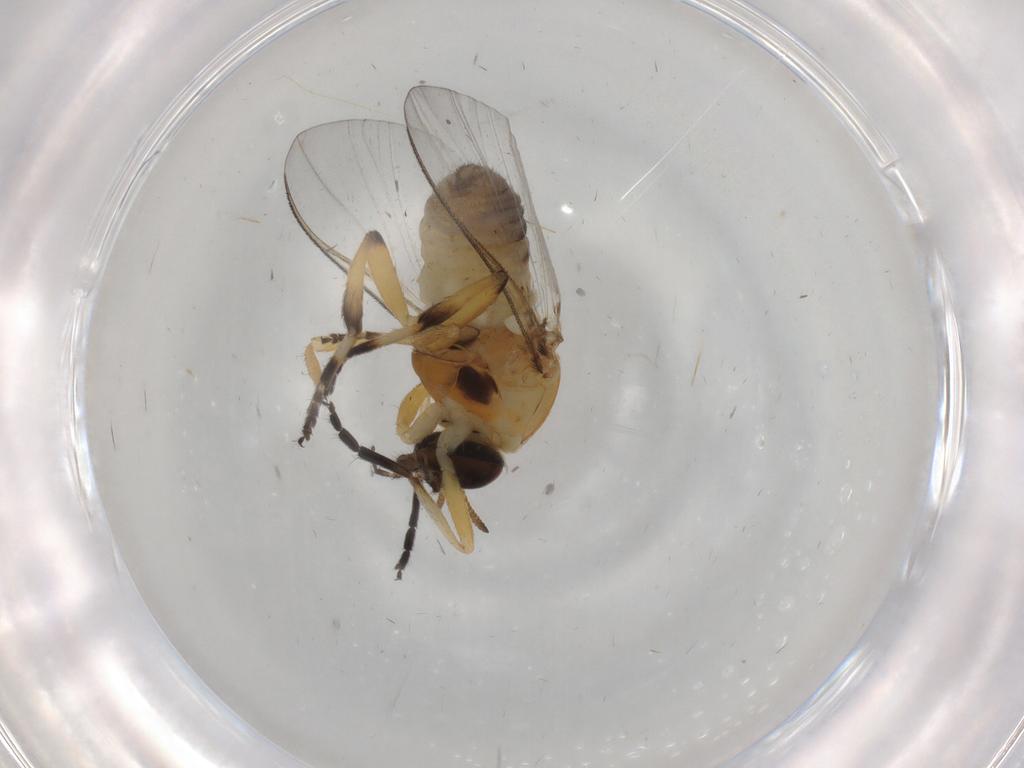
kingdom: Animalia
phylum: Arthropoda
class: Insecta
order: Diptera
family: Simuliidae
